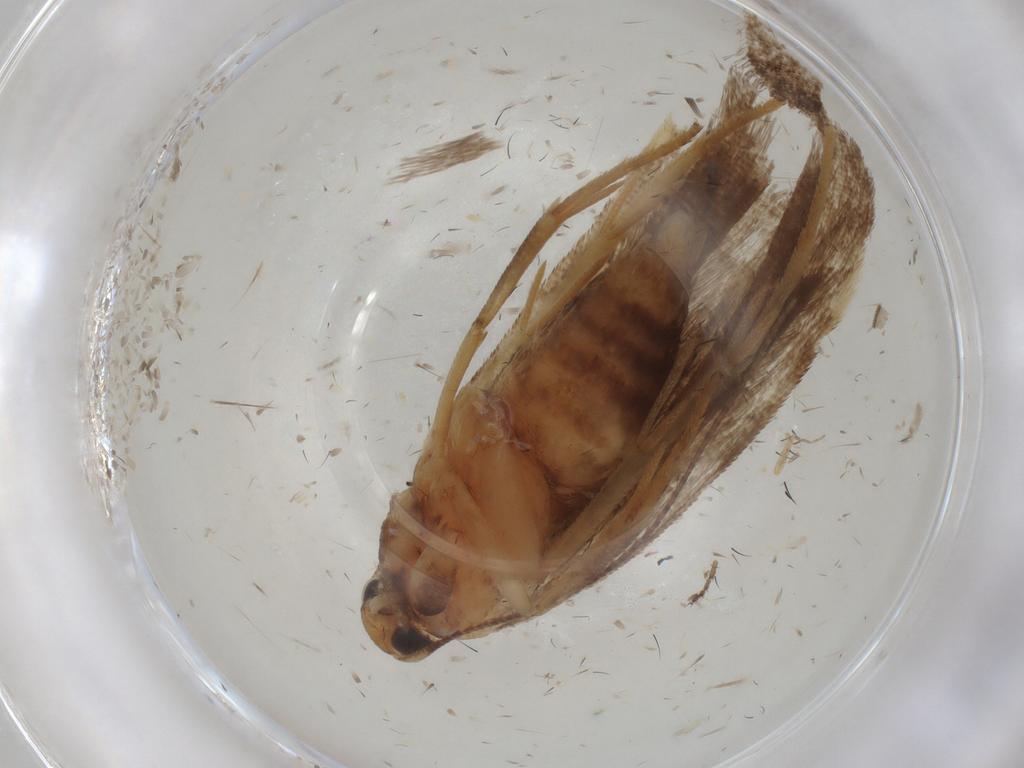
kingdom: Animalia
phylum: Arthropoda
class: Insecta
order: Lepidoptera
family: Gelechiidae
